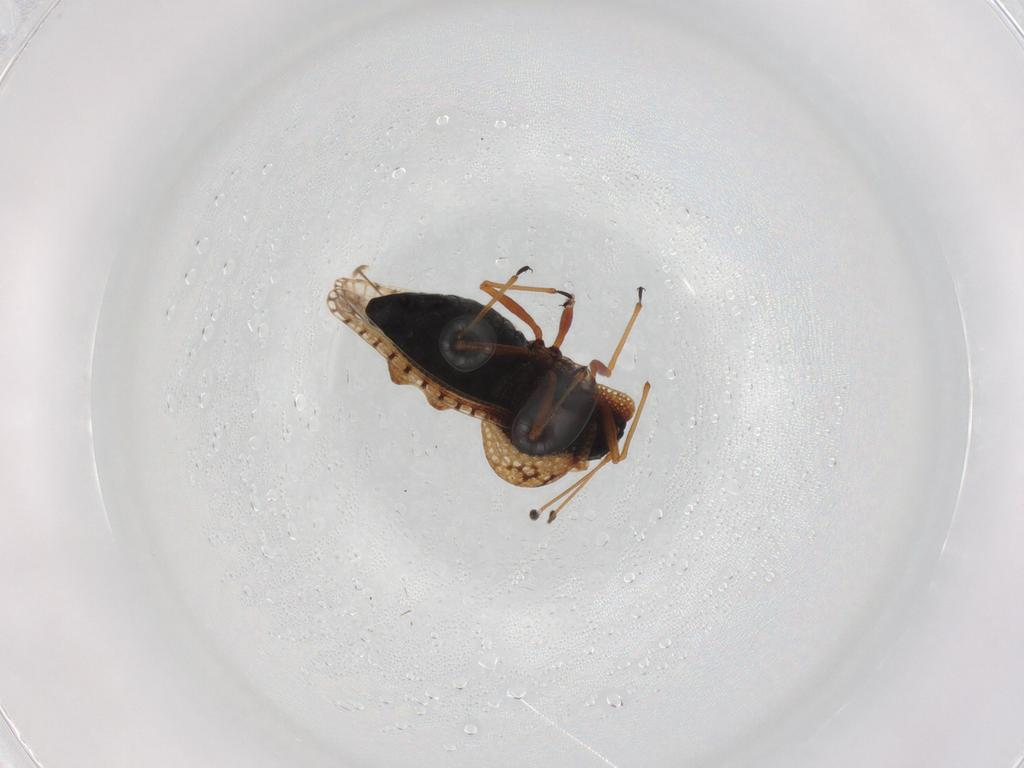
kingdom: Animalia
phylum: Arthropoda
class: Insecta
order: Hemiptera
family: Tingidae
